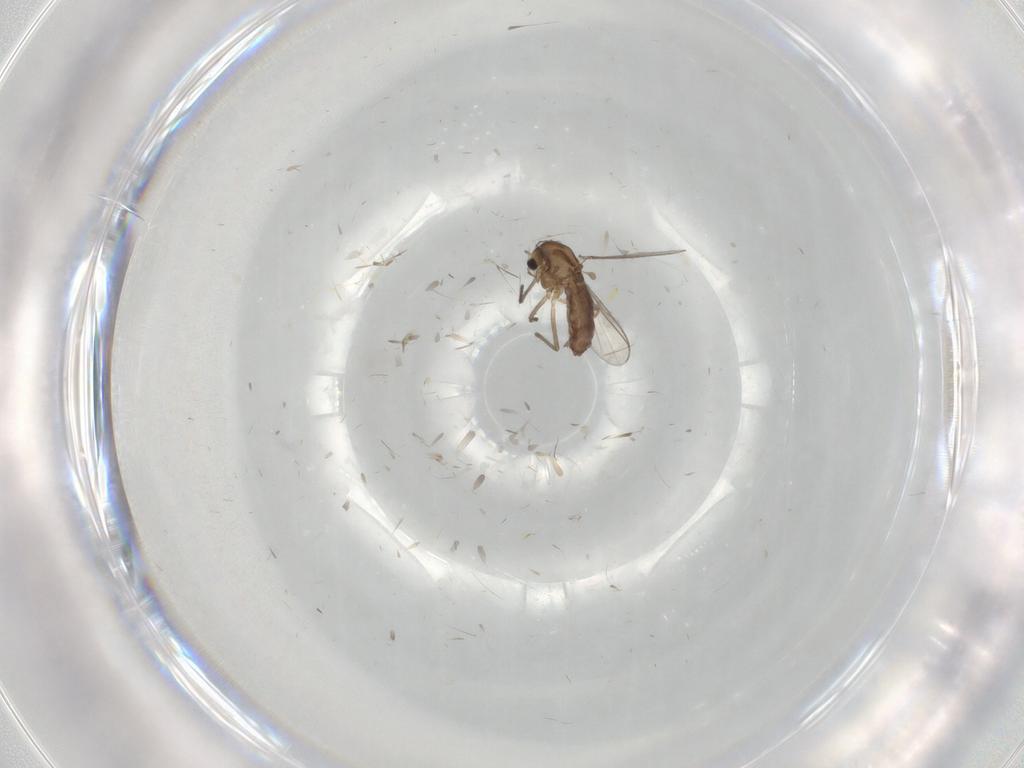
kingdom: Animalia
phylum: Arthropoda
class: Insecta
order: Diptera
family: Chironomidae
